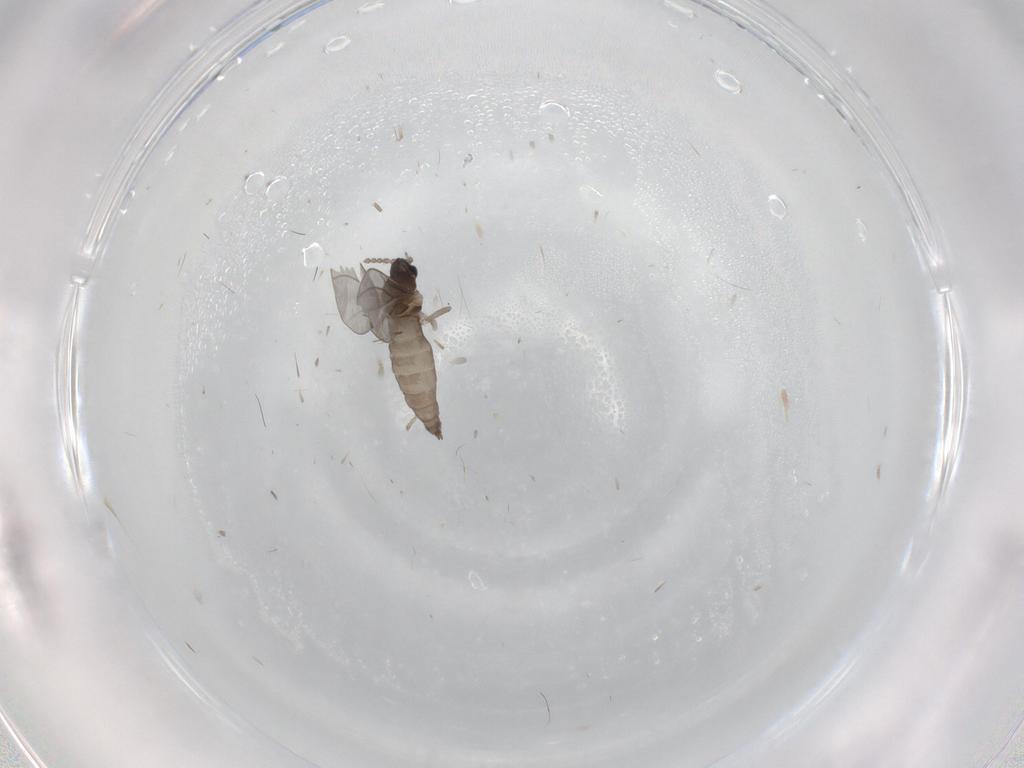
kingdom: Animalia
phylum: Arthropoda
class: Insecta
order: Diptera
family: Cecidomyiidae
